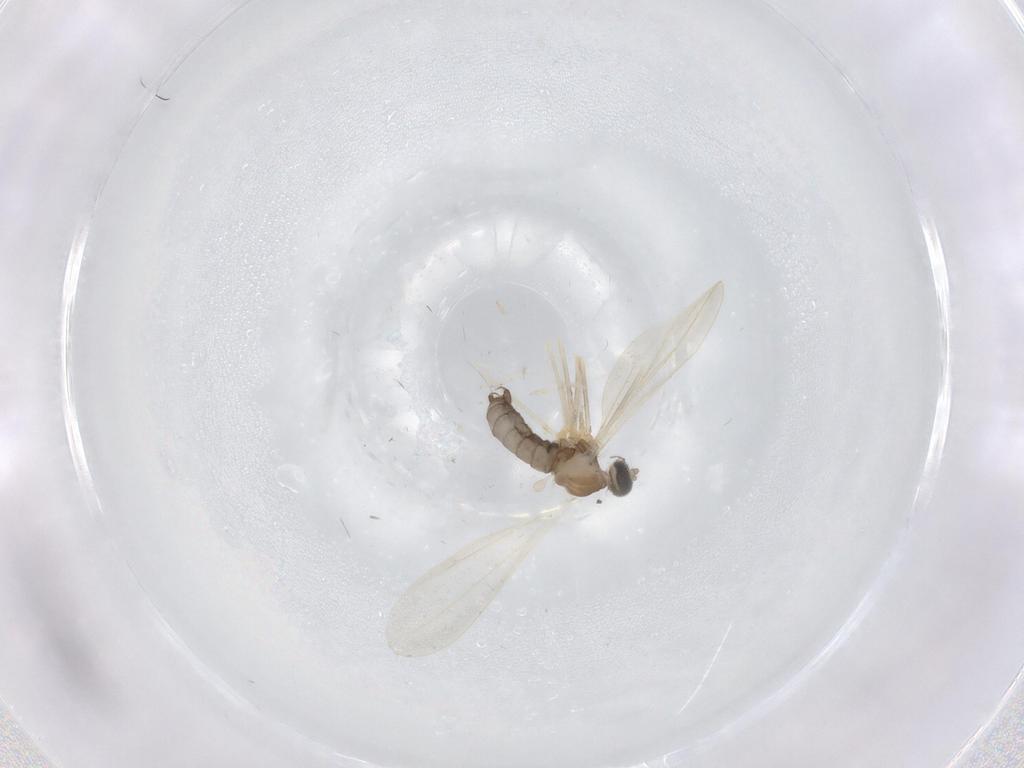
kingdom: Animalia
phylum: Arthropoda
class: Insecta
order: Diptera
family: Cecidomyiidae
